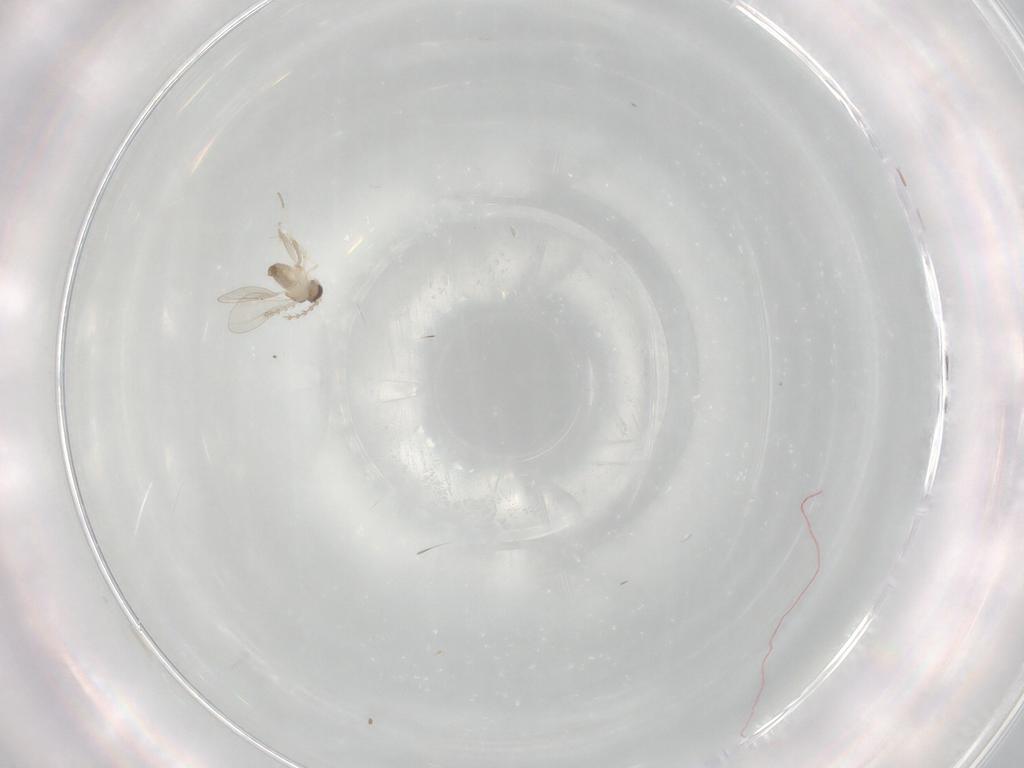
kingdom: Animalia
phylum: Arthropoda
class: Insecta
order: Diptera
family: Cecidomyiidae
